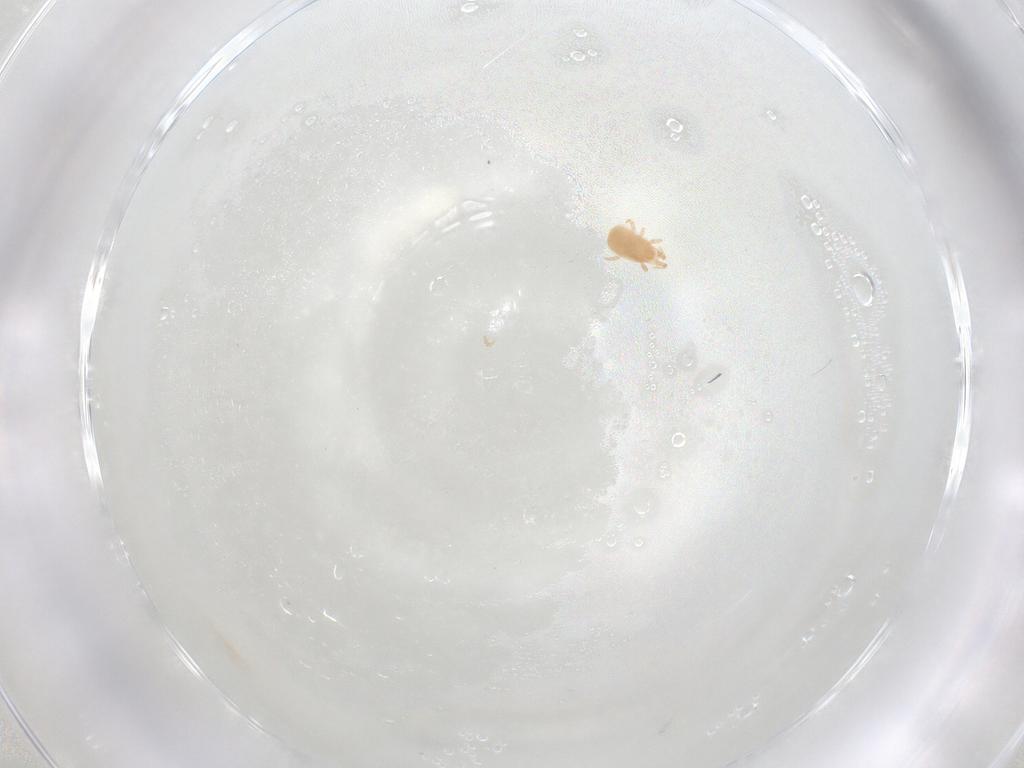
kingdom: Animalia
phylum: Arthropoda
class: Arachnida
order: Mesostigmata
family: Ascidae
